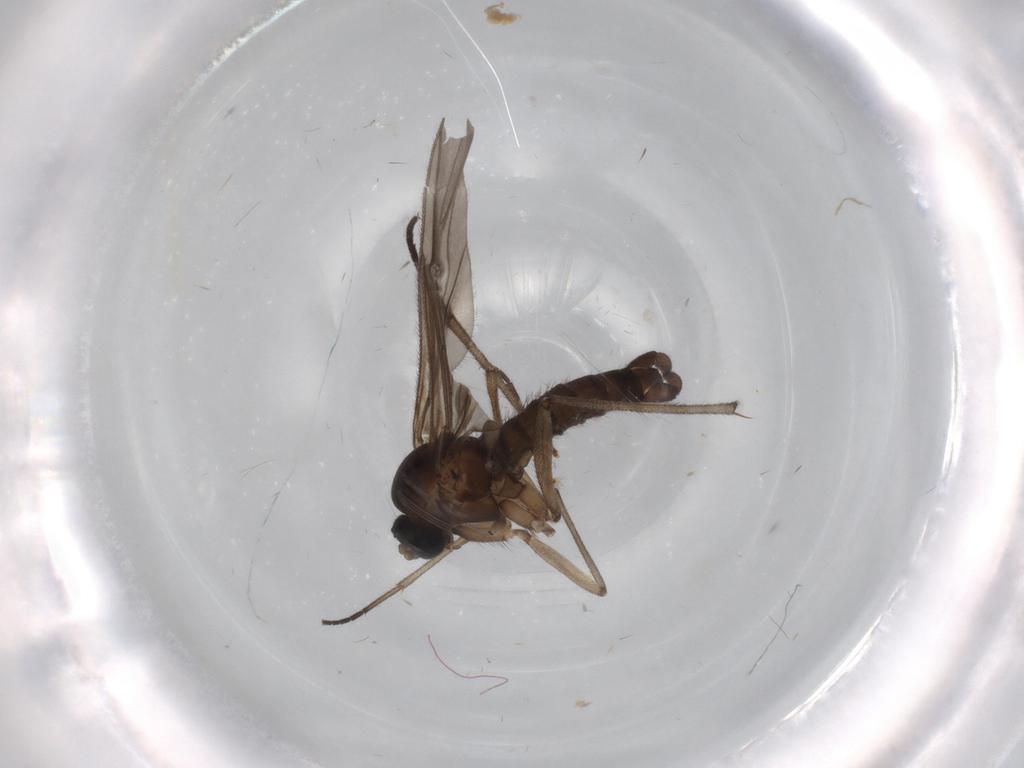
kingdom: Animalia
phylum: Arthropoda
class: Insecta
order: Diptera
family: Sciaridae
